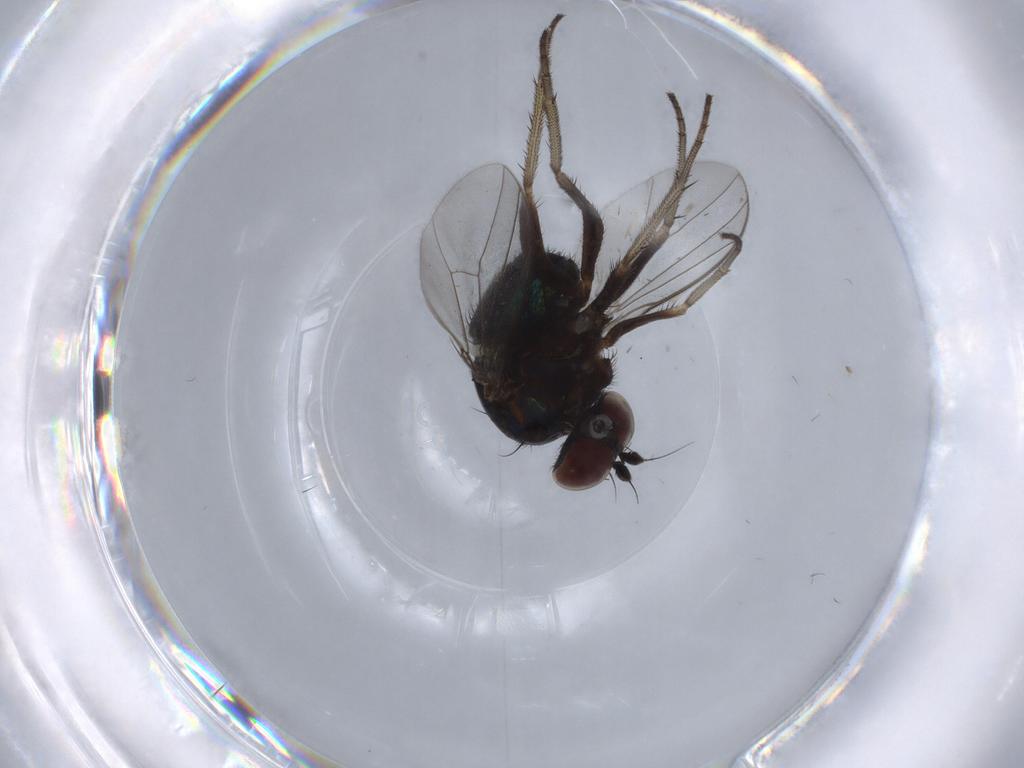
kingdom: Animalia
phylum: Arthropoda
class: Insecta
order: Diptera
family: Dolichopodidae
